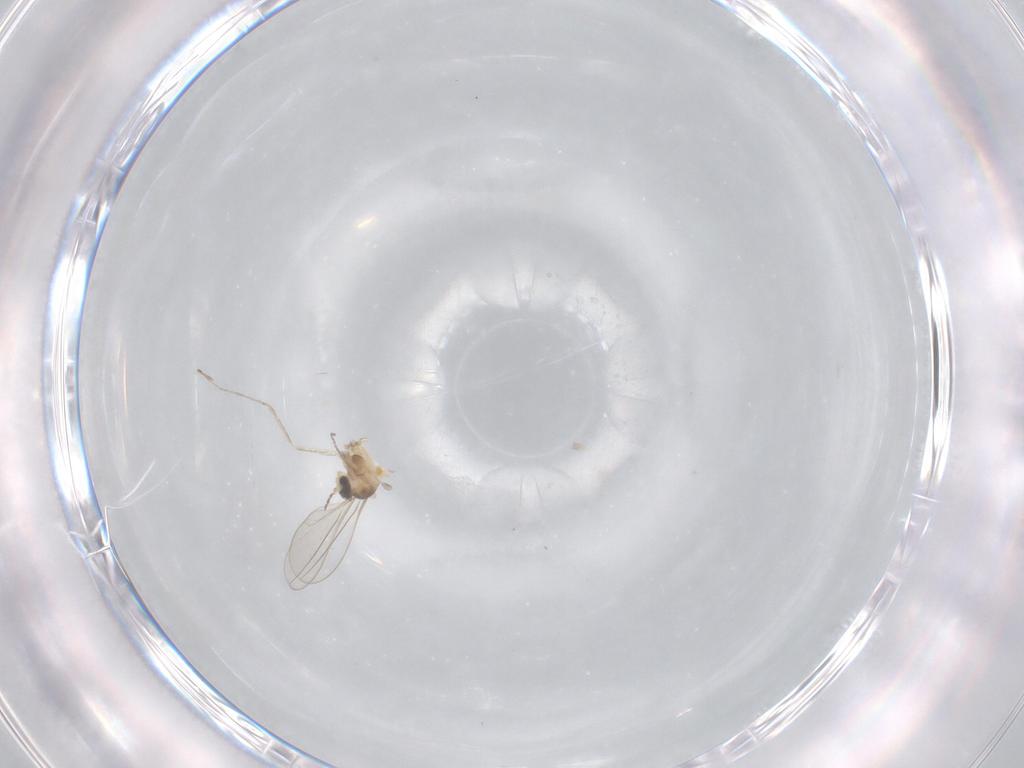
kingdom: Animalia
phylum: Arthropoda
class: Insecta
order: Diptera
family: Cecidomyiidae
